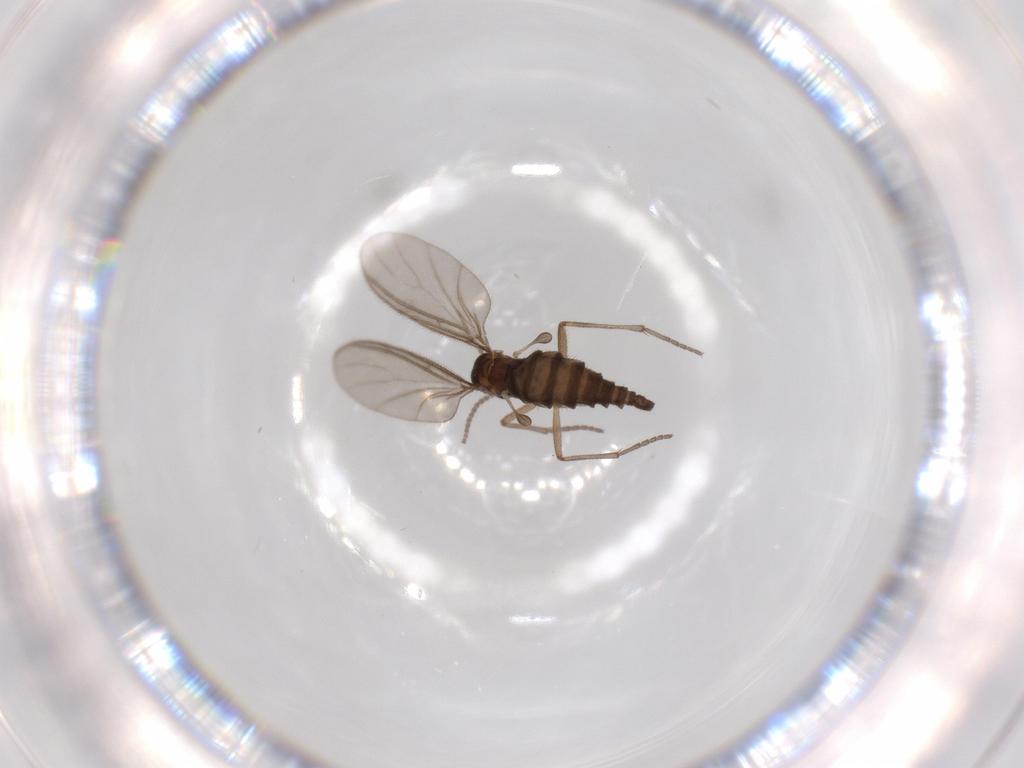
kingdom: Animalia
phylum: Arthropoda
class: Insecta
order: Diptera
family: Sciaridae
